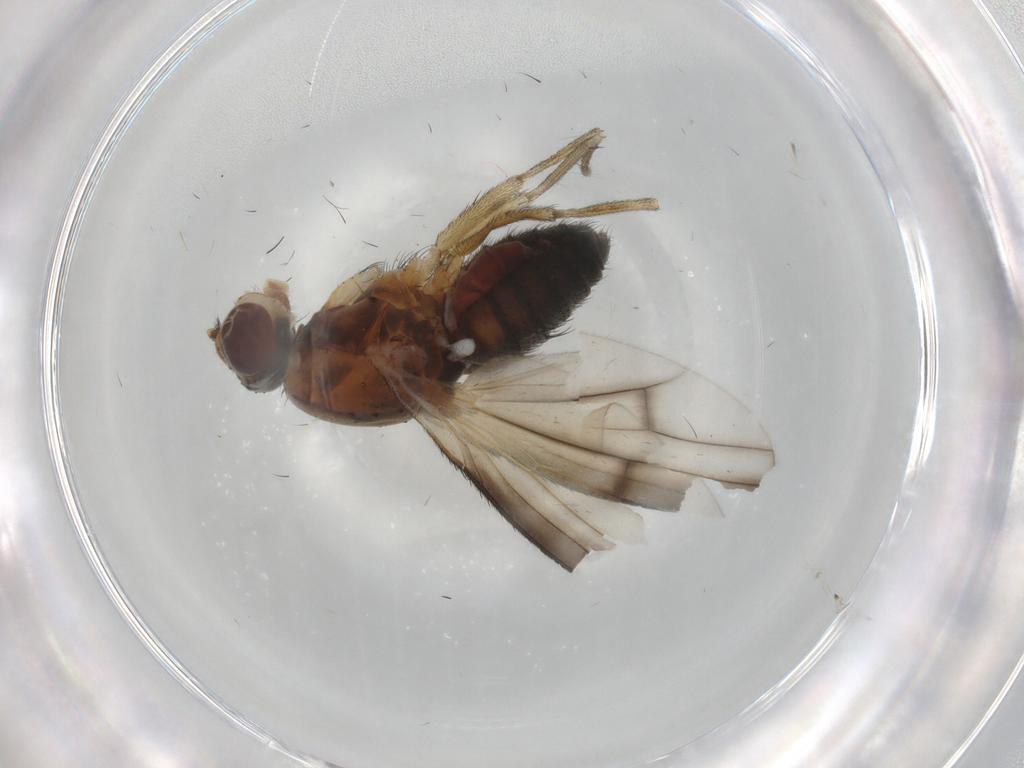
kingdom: Animalia
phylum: Arthropoda
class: Insecta
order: Diptera
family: Heleomyzidae
